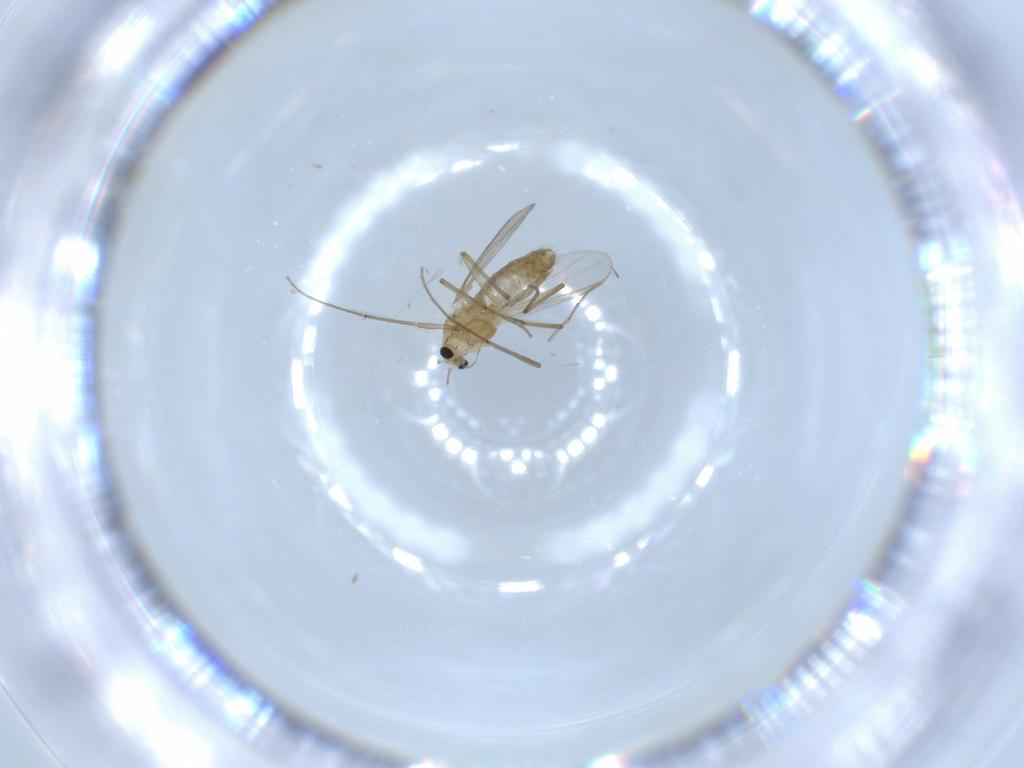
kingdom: Animalia
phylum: Arthropoda
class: Insecta
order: Diptera
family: Chironomidae
